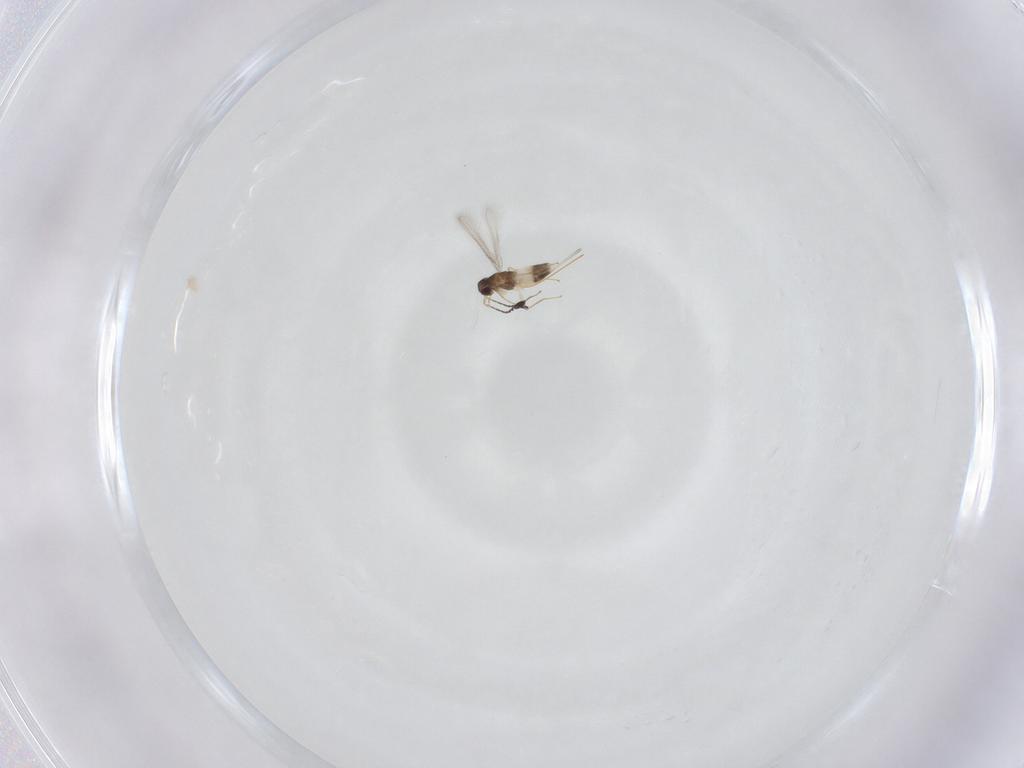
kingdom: Animalia
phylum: Arthropoda
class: Insecta
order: Hymenoptera
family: Mymaridae
